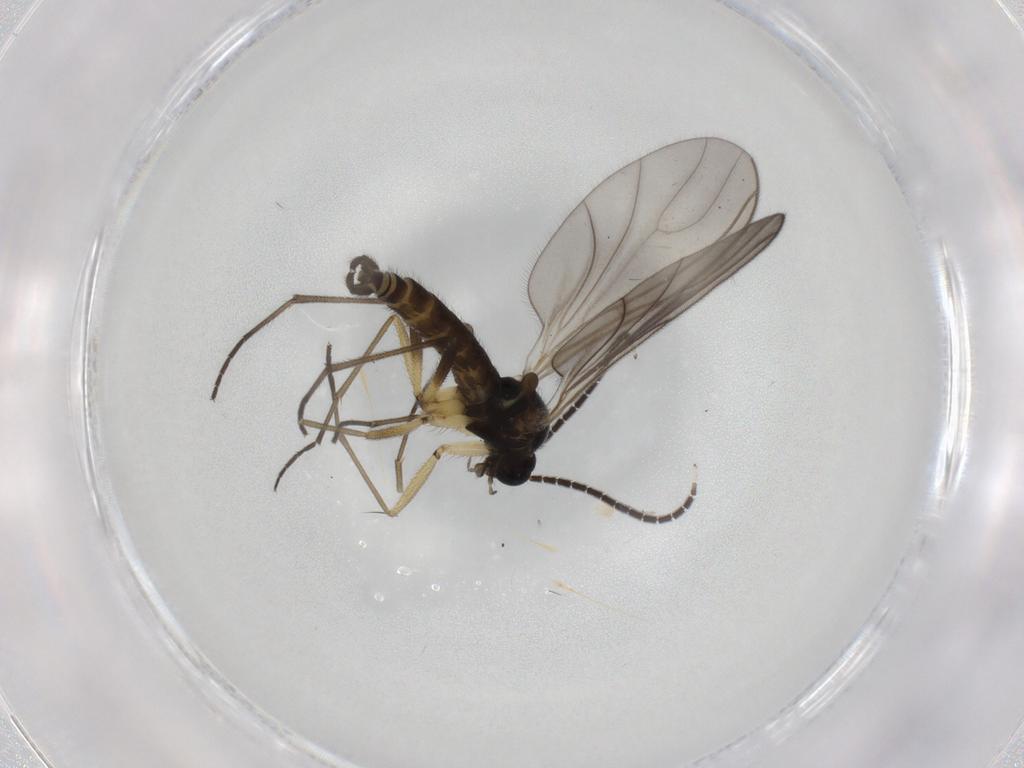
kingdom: Animalia
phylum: Arthropoda
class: Insecta
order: Diptera
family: Sciaridae
